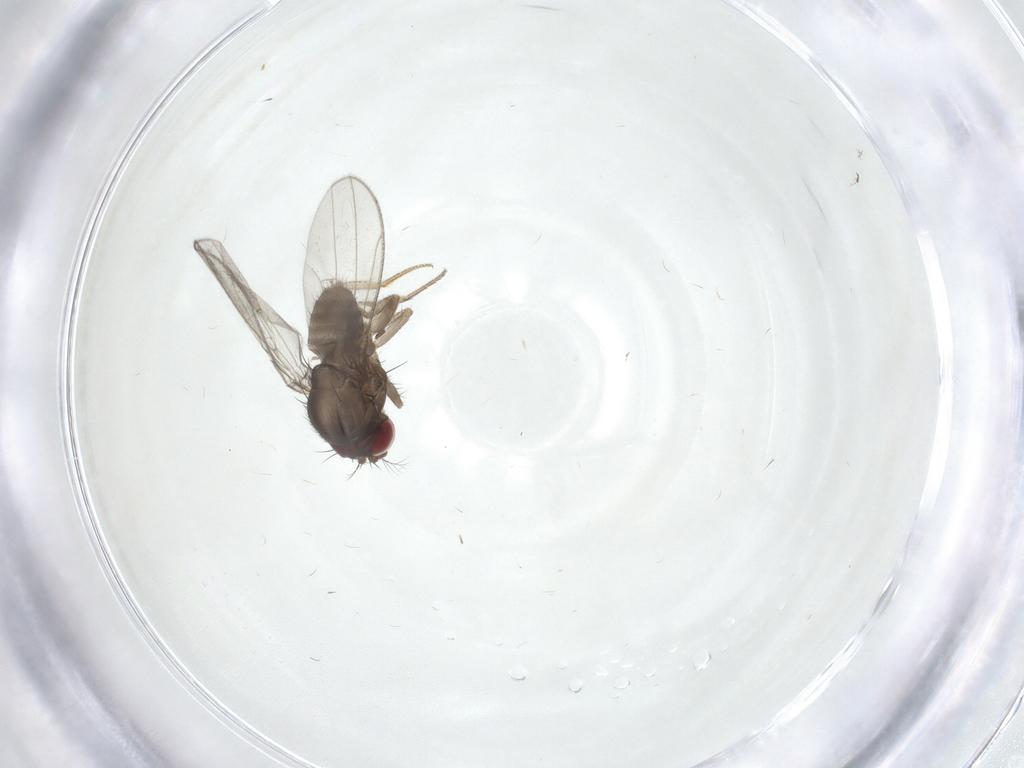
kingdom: Animalia
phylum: Arthropoda
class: Insecta
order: Diptera
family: Drosophilidae
